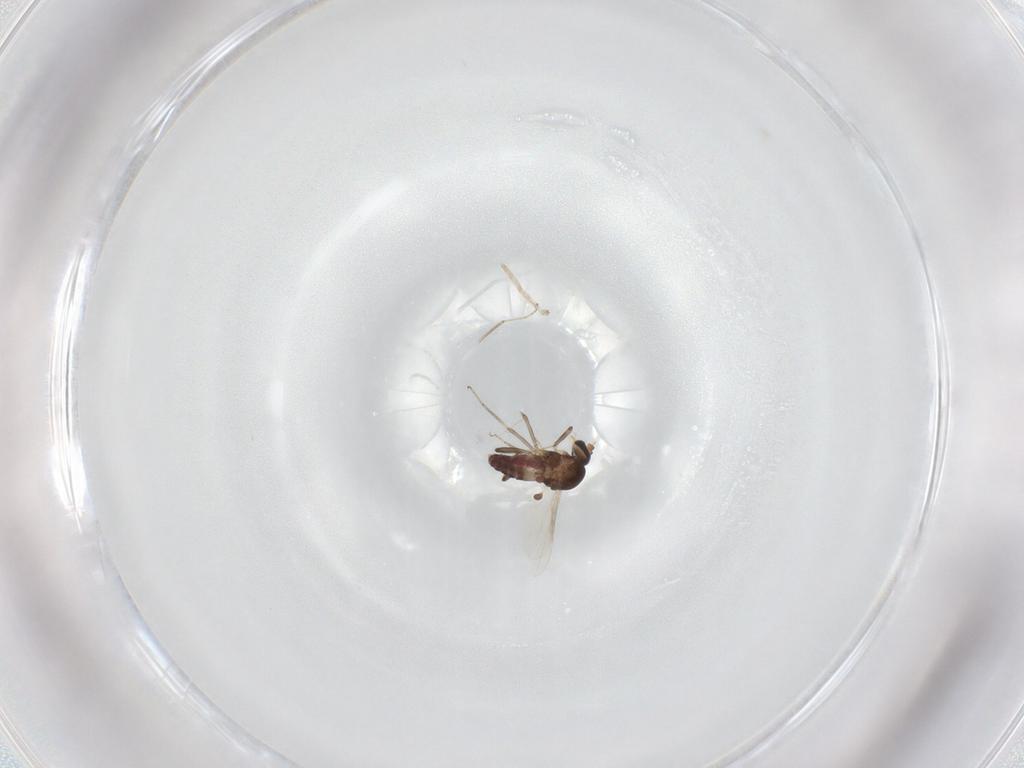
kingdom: Animalia
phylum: Arthropoda
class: Insecta
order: Diptera
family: Ceratopogonidae
